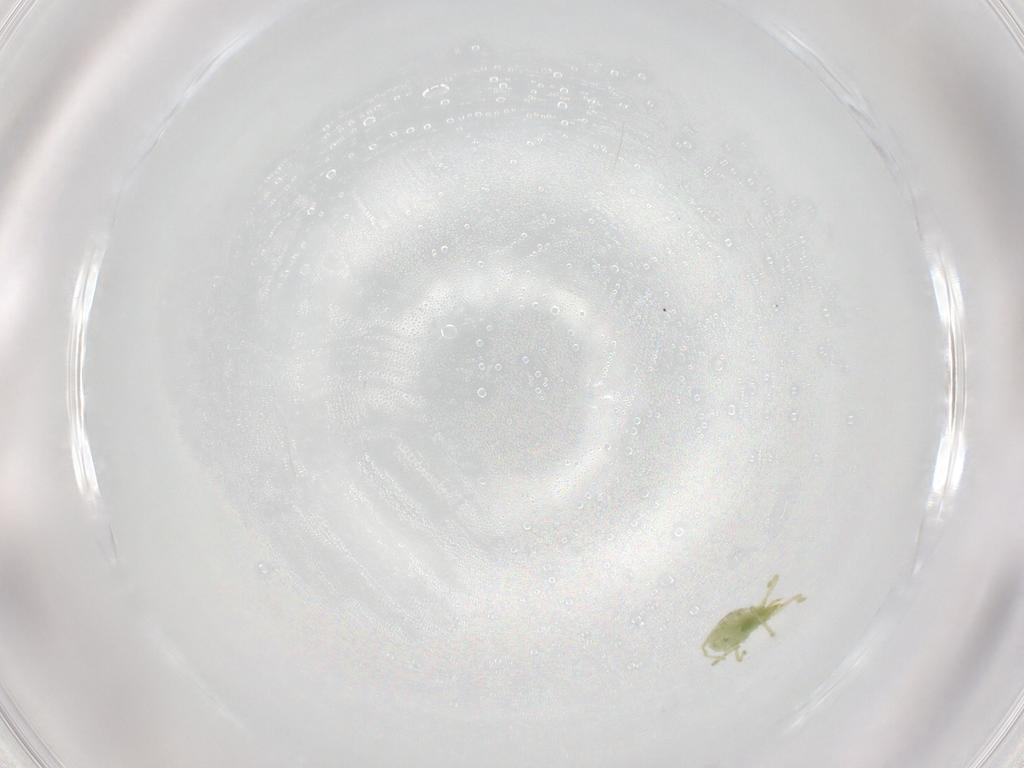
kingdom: Animalia
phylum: Arthropoda
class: Arachnida
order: Trombidiformes
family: Erythraeidae
